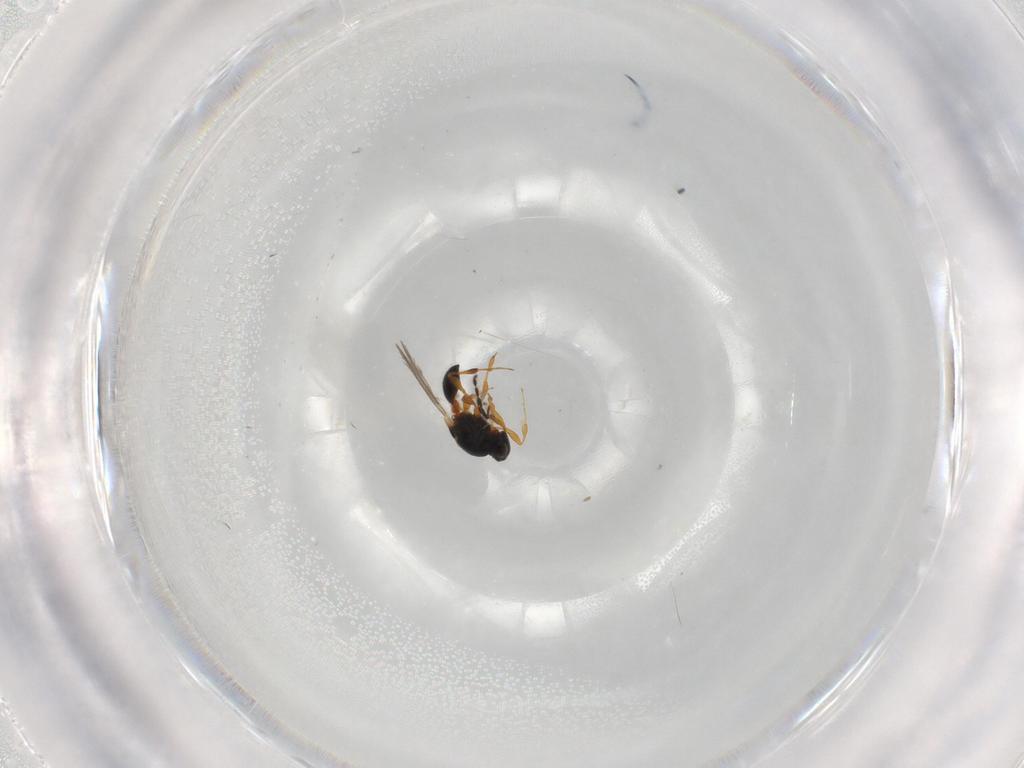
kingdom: Animalia
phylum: Arthropoda
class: Insecta
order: Hymenoptera
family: Platygastridae
